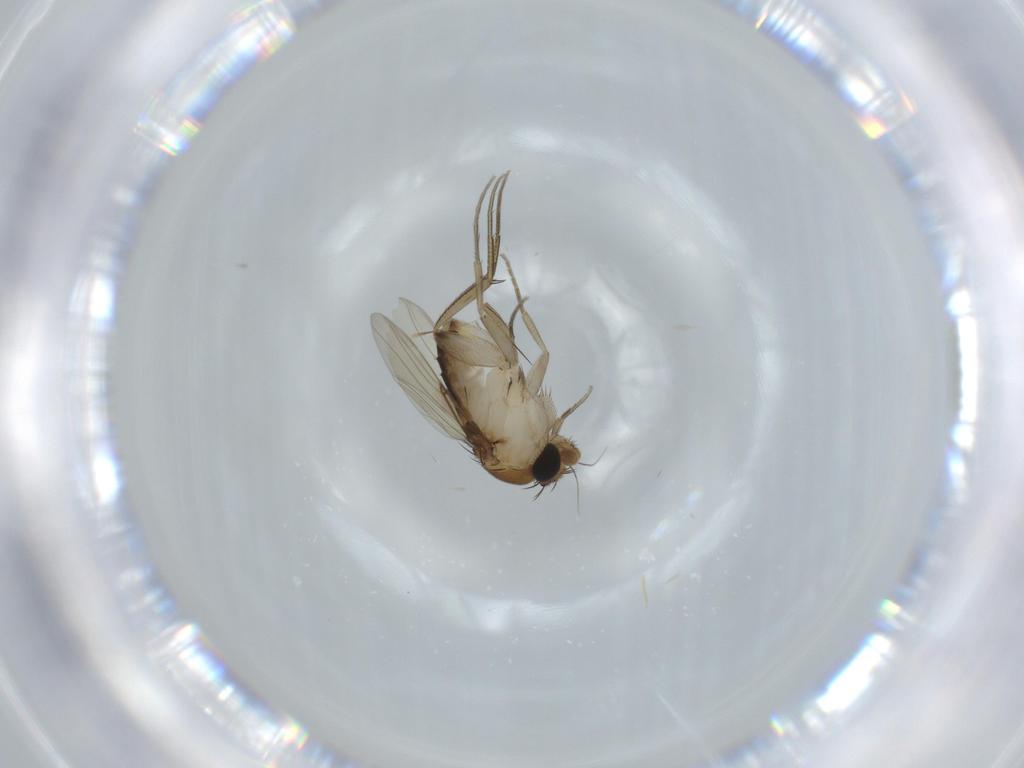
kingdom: Animalia
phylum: Arthropoda
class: Insecta
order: Diptera
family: Phoridae
